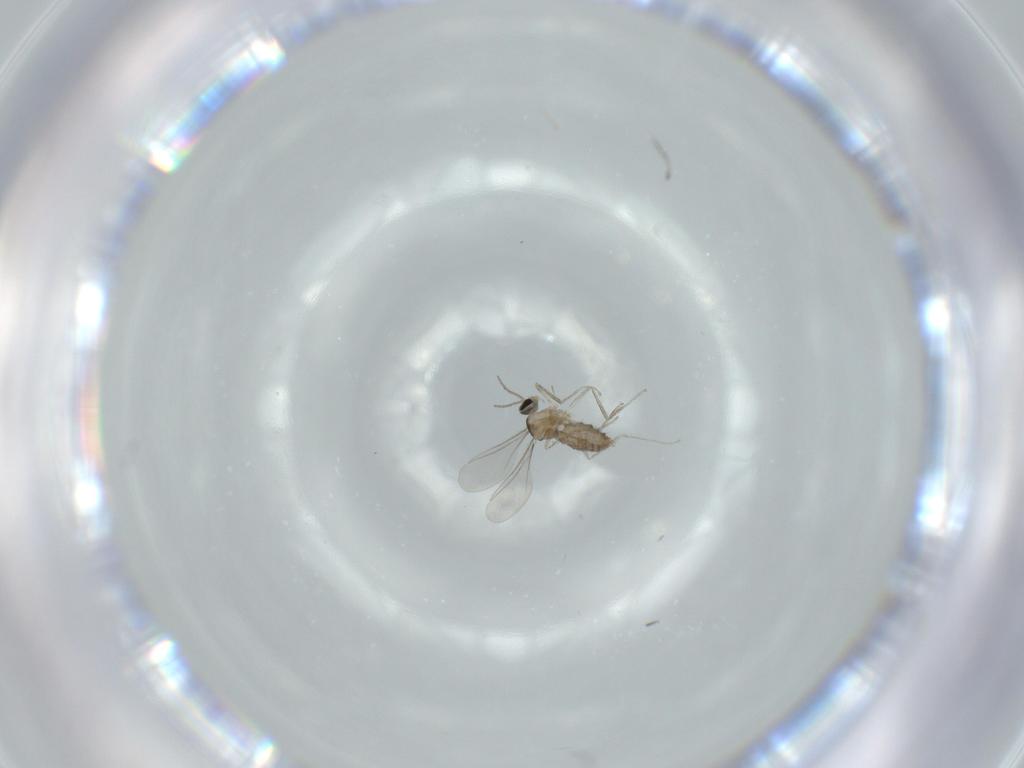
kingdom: Animalia
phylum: Arthropoda
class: Insecta
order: Diptera
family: Cecidomyiidae
